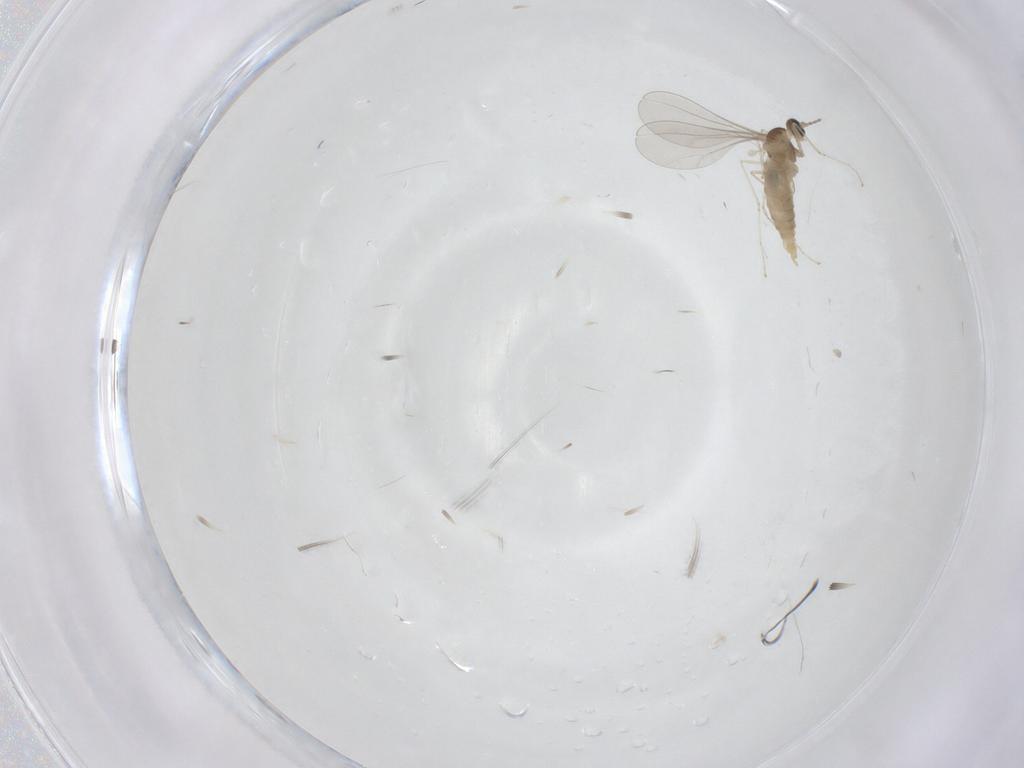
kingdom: Animalia
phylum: Arthropoda
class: Insecta
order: Diptera
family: Cecidomyiidae
